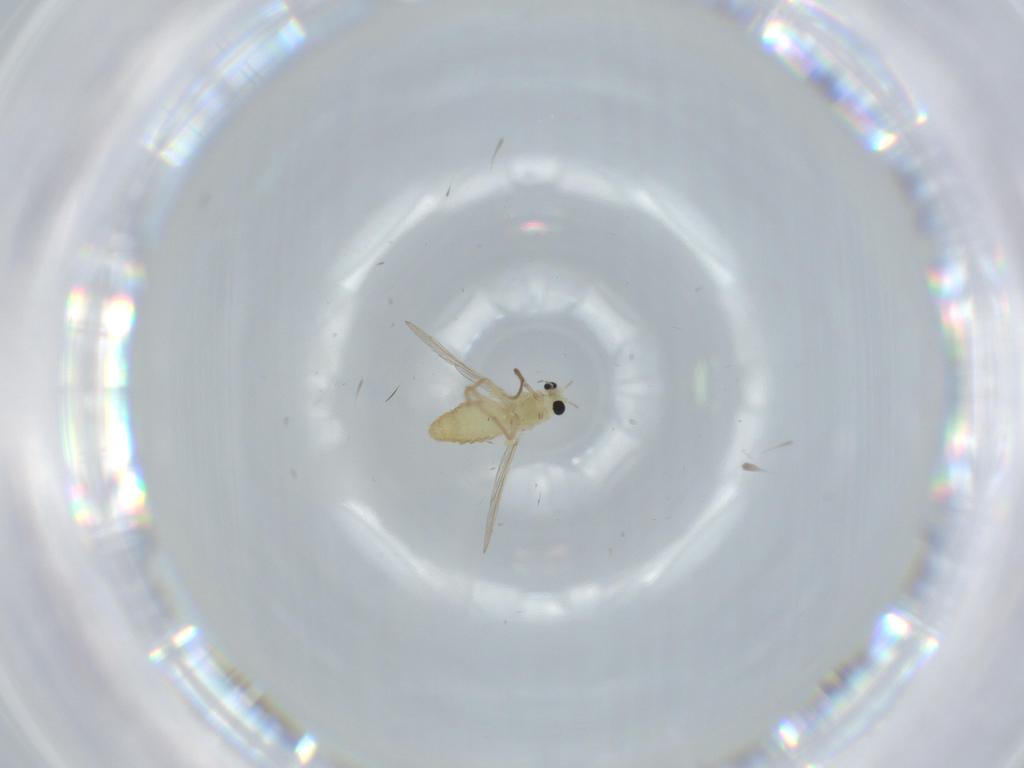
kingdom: Animalia
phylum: Arthropoda
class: Insecta
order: Diptera
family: Chironomidae
